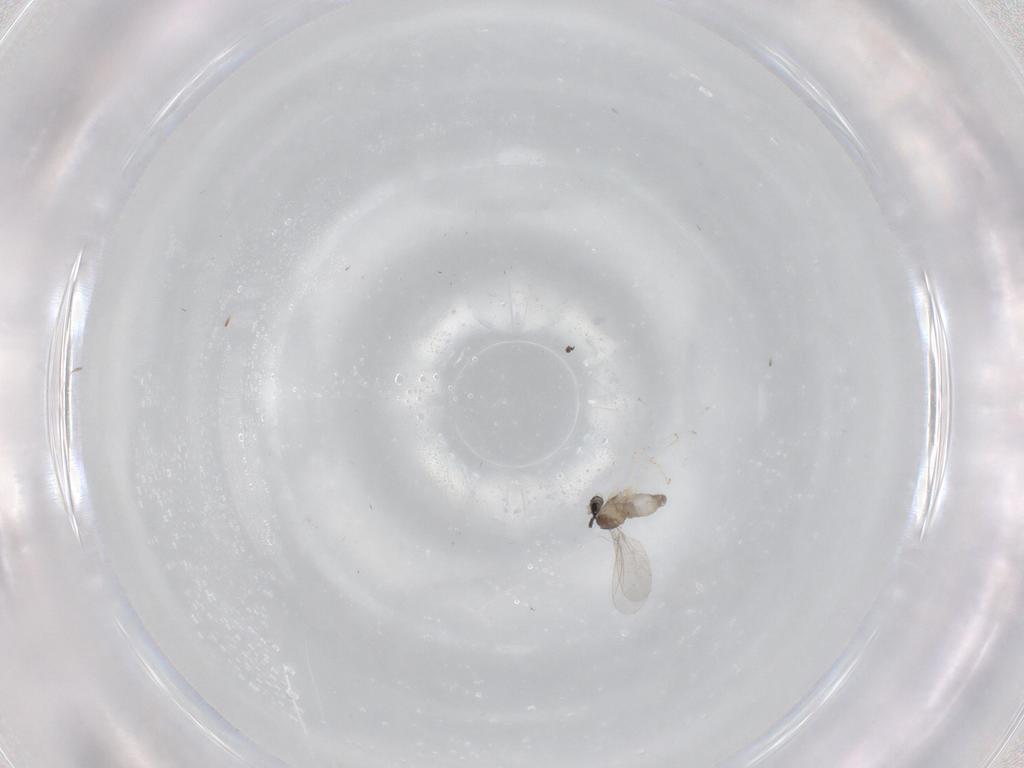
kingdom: Animalia
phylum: Arthropoda
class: Insecta
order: Diptera
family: Cecidomyiidae
